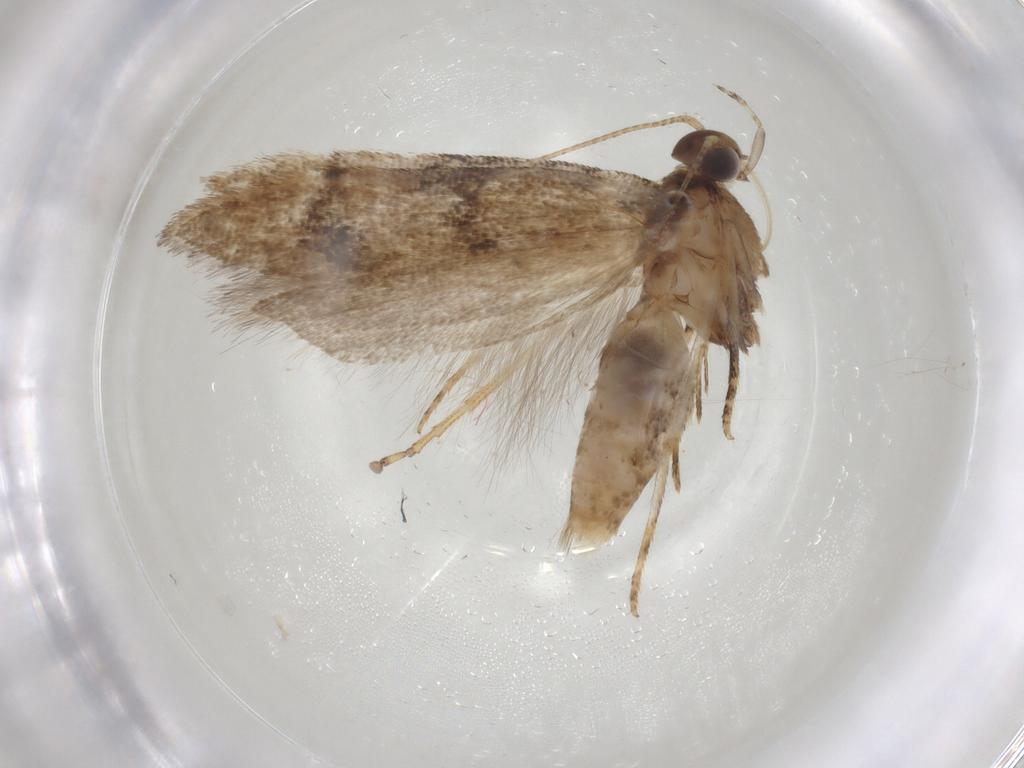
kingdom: Animalia
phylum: Arthropoda
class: Insecta
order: Lepidoptera
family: Gelechiidae
